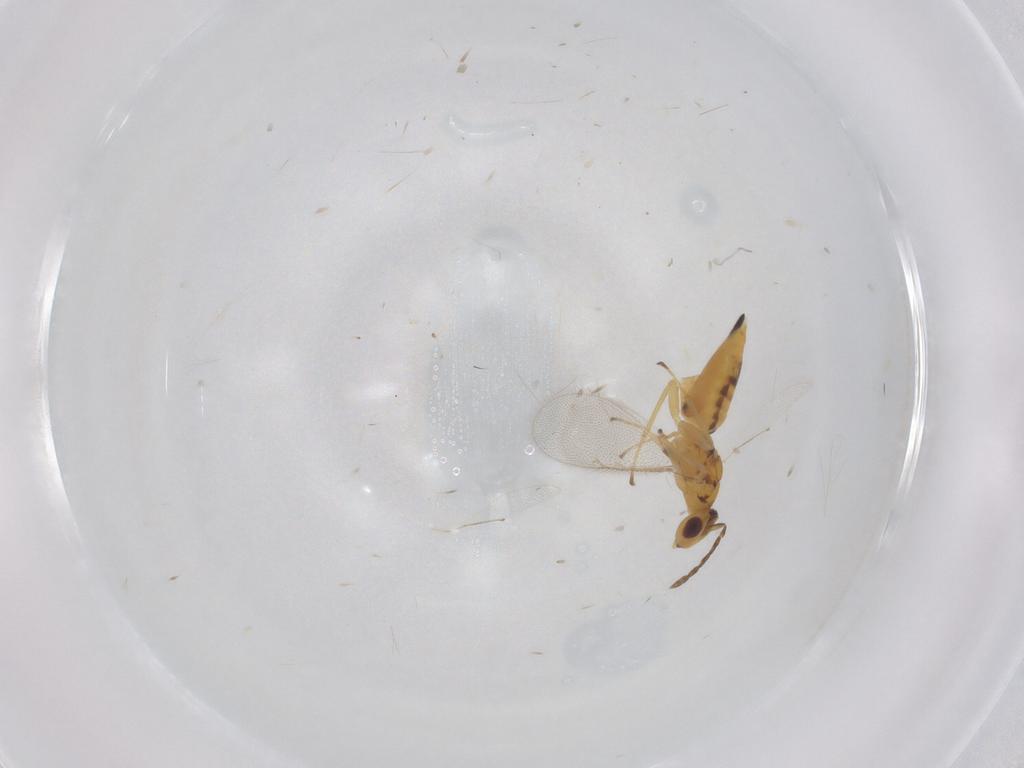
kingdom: Animalia
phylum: Arthropoda
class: Insecta
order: Hymenoptera
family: Eulophidae
